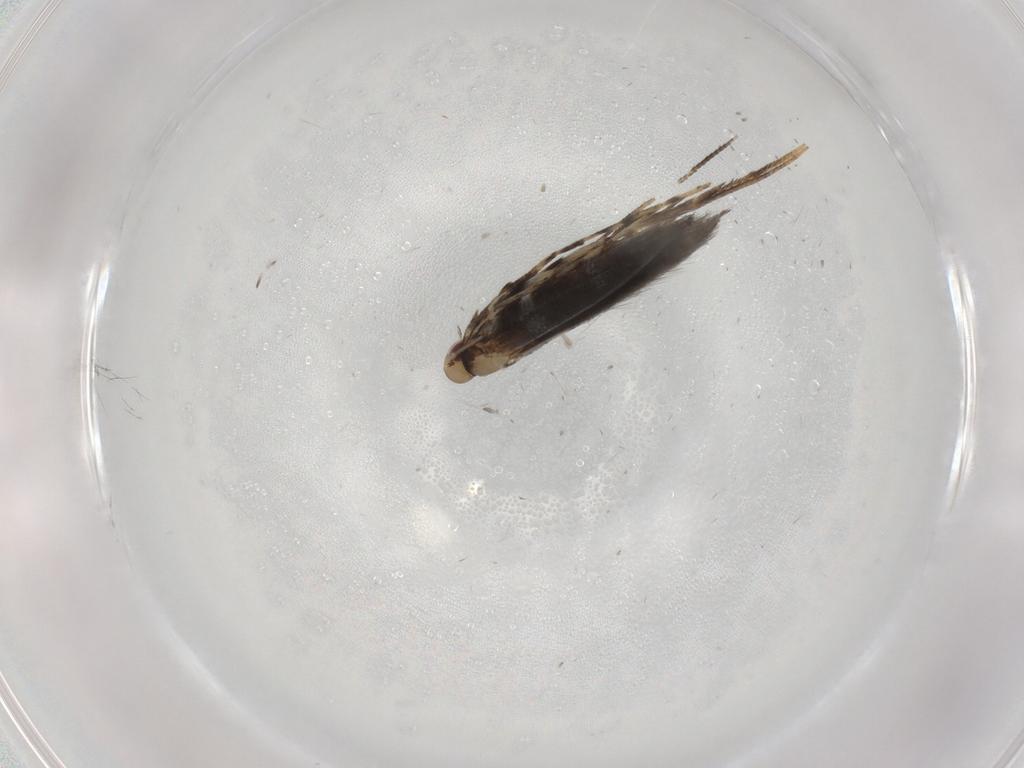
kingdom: Animalia
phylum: Arthropoda
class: Insecta
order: Lepidoptera
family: Gracillariidae
